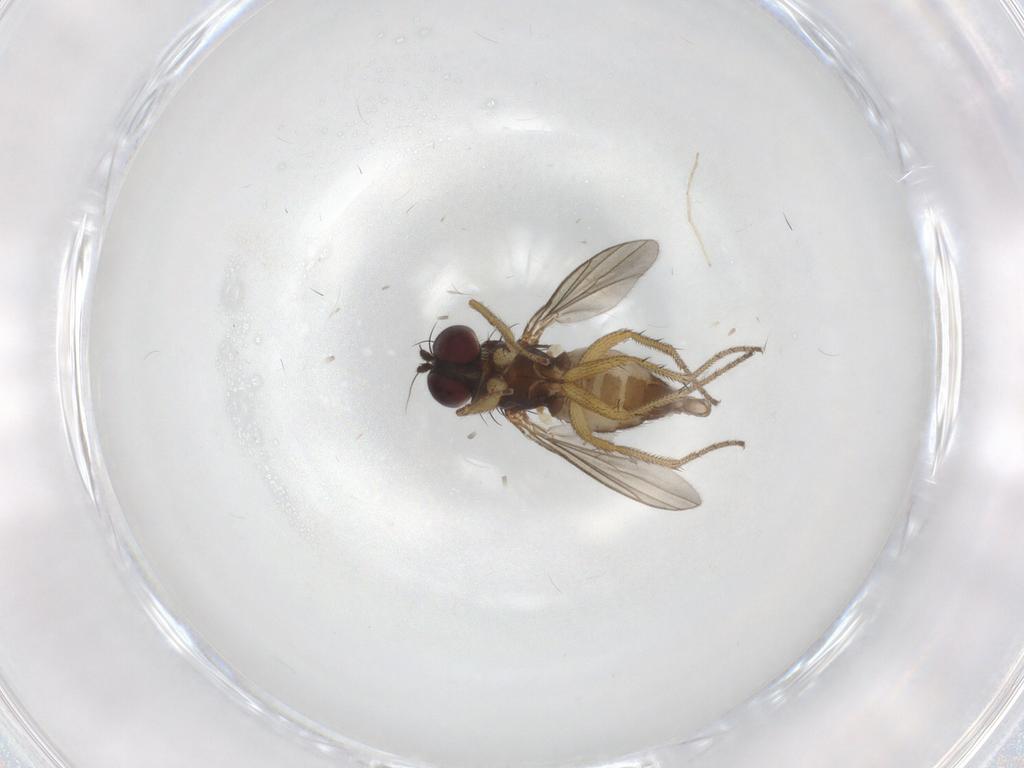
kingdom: Animalia
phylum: Arthropoda
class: Insecta
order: Diptera
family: Dolichopodidae
